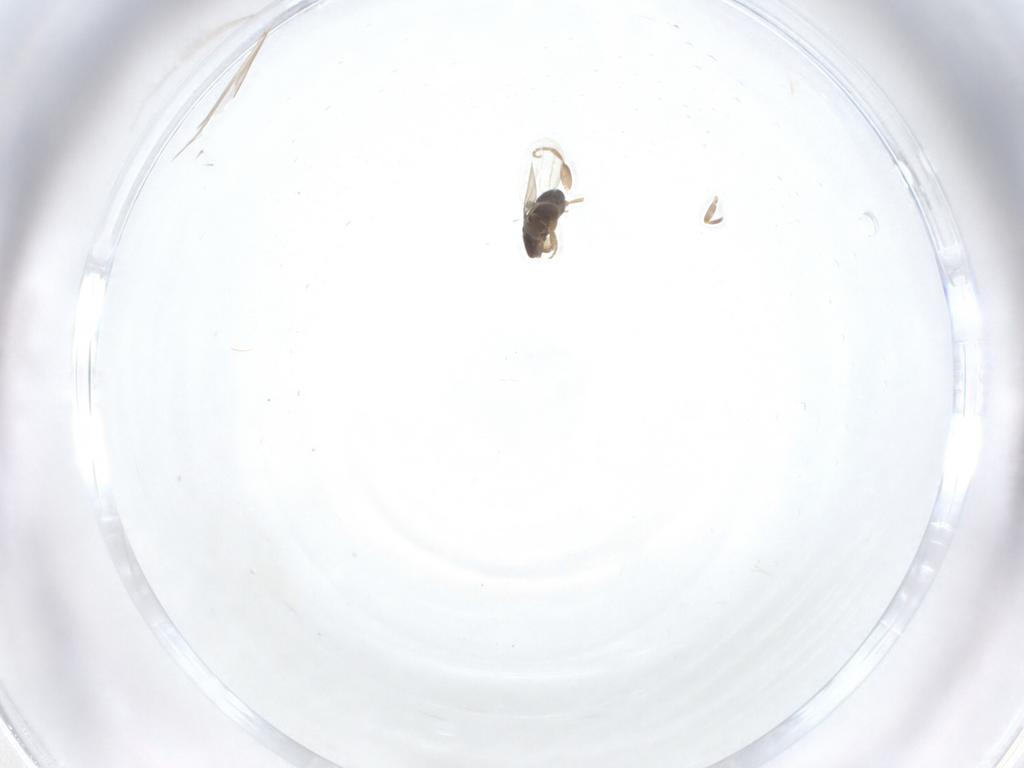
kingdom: Animalia
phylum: Arthropoda
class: Insecta
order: Diptera
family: Phoridae
